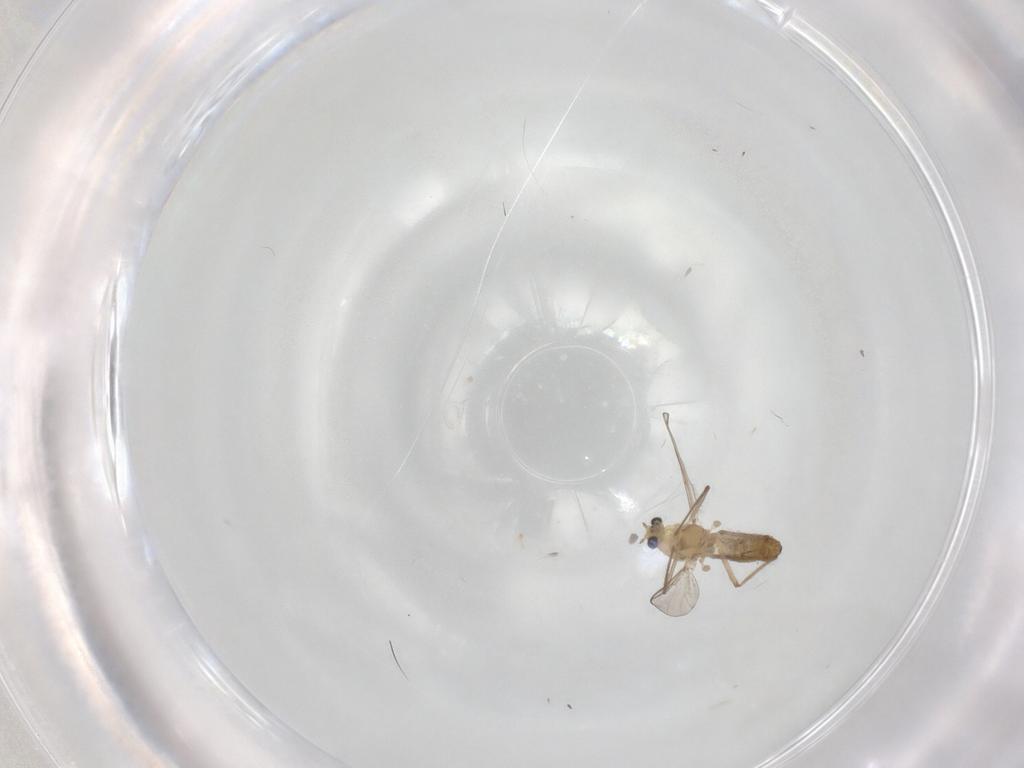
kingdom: Animalia
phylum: Arthropoda
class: Insecta
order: Diptera
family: Chironomidae
